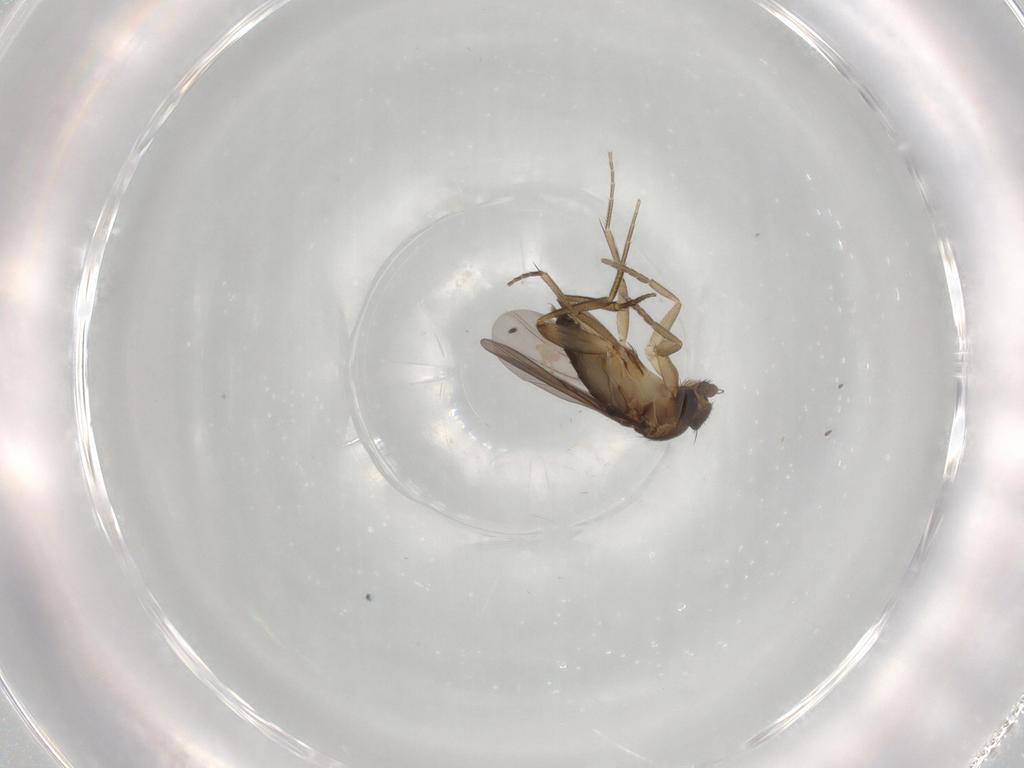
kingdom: Animalia
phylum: Arthropoda
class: Insecta
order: Diptera
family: Phoridae
